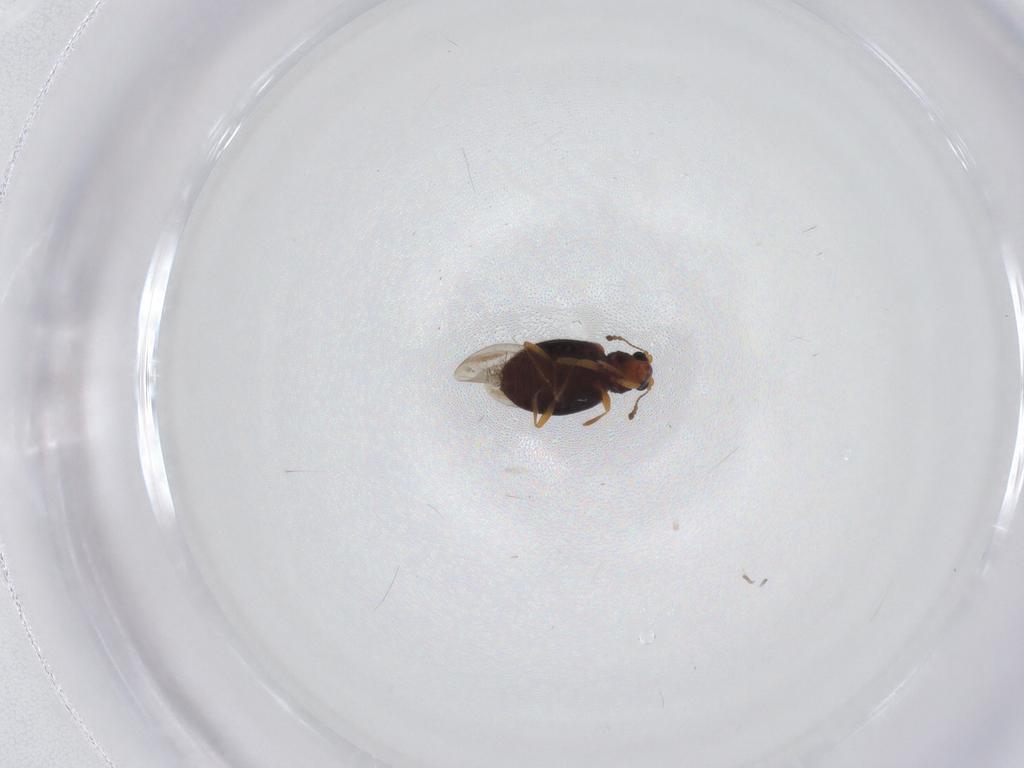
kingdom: Animalia
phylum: Arthropoda
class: Insecta
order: Coleoptera
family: Latridiidae
